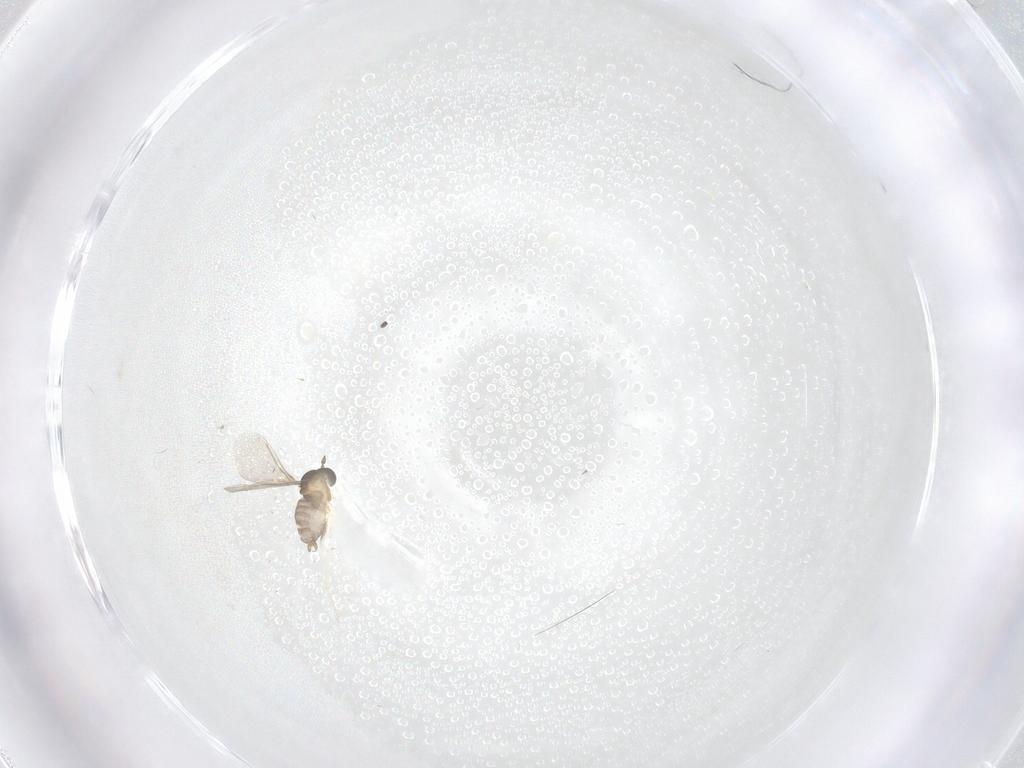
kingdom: Animalia
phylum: Arthropoda
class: Insecta
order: Diptera
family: Cecidomyiidae
